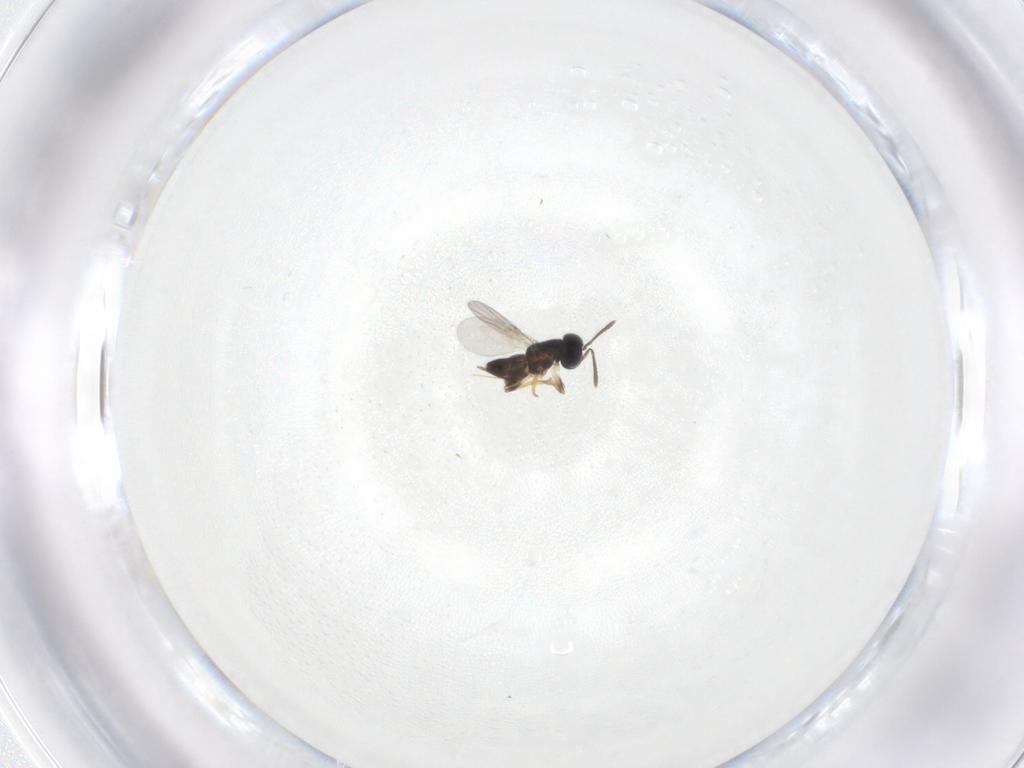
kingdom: Animalia
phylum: Arthropoda
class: Insecta
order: Hymenoptera
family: Encyrtidae
